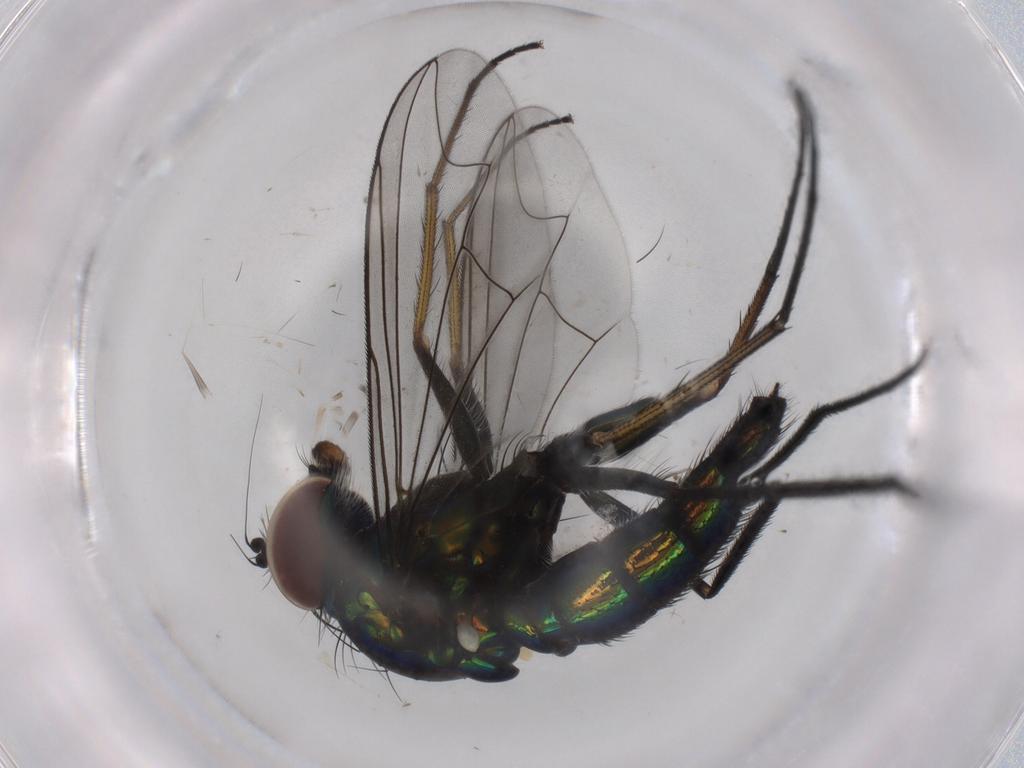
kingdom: Animalia
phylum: Arthropoda
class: Insecta
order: Diptera
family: Dolichopodidae
